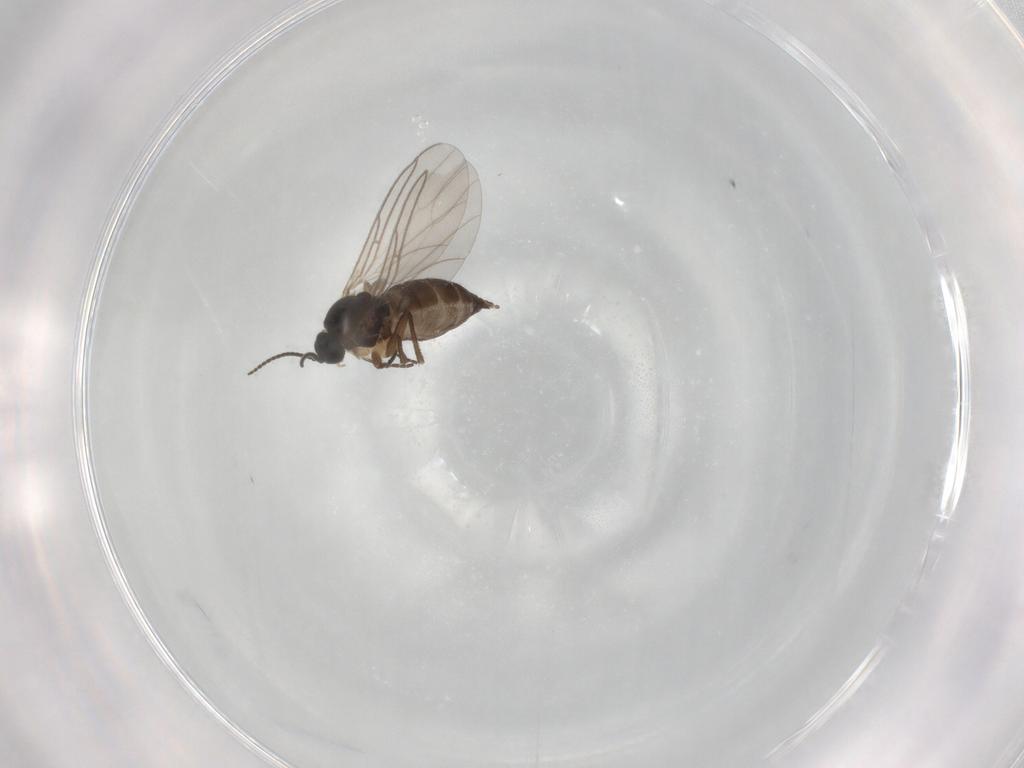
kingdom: Animalia
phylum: Arthropoda
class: Insecta
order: Diptera
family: Sciaridae
